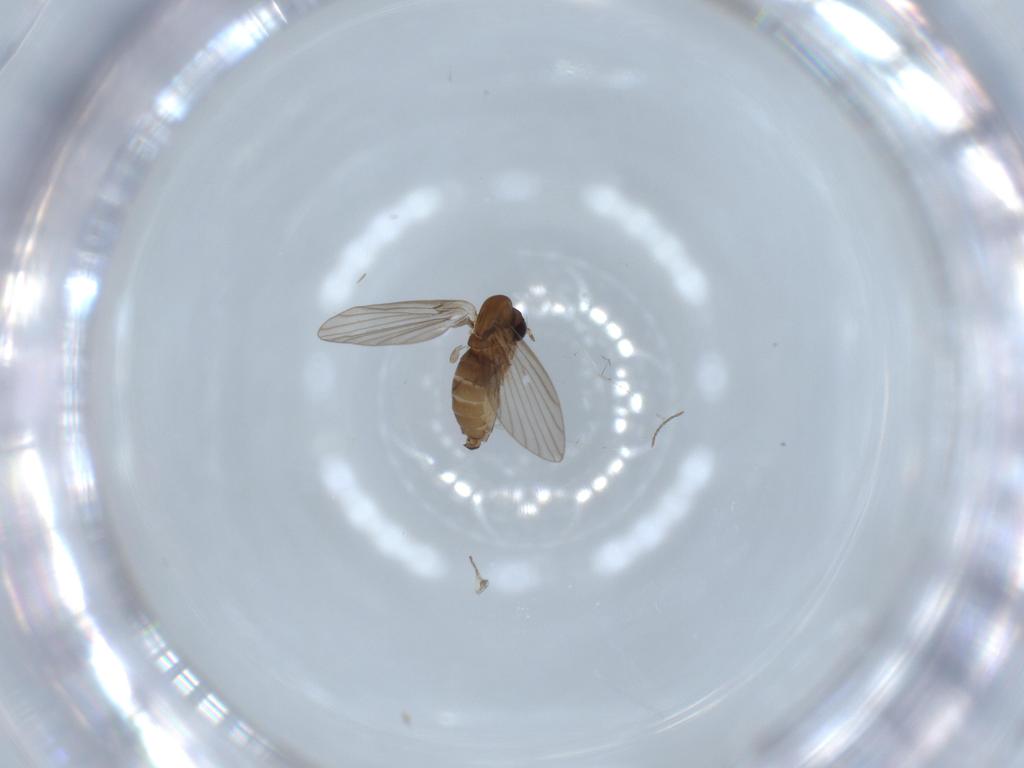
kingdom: Animalia
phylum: Arthropoda
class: Insecta
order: Diptera
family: Psychodidae
